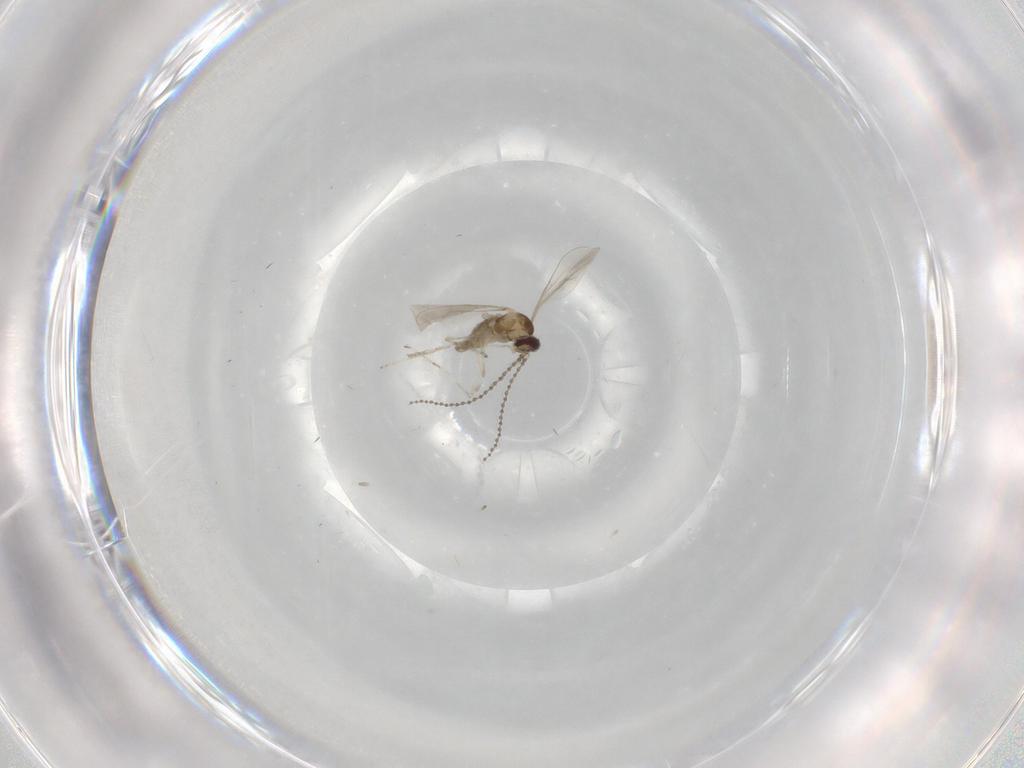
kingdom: Animalia
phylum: Arthropoda
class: Insecta
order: Diptera
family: Cecidomyiidae
